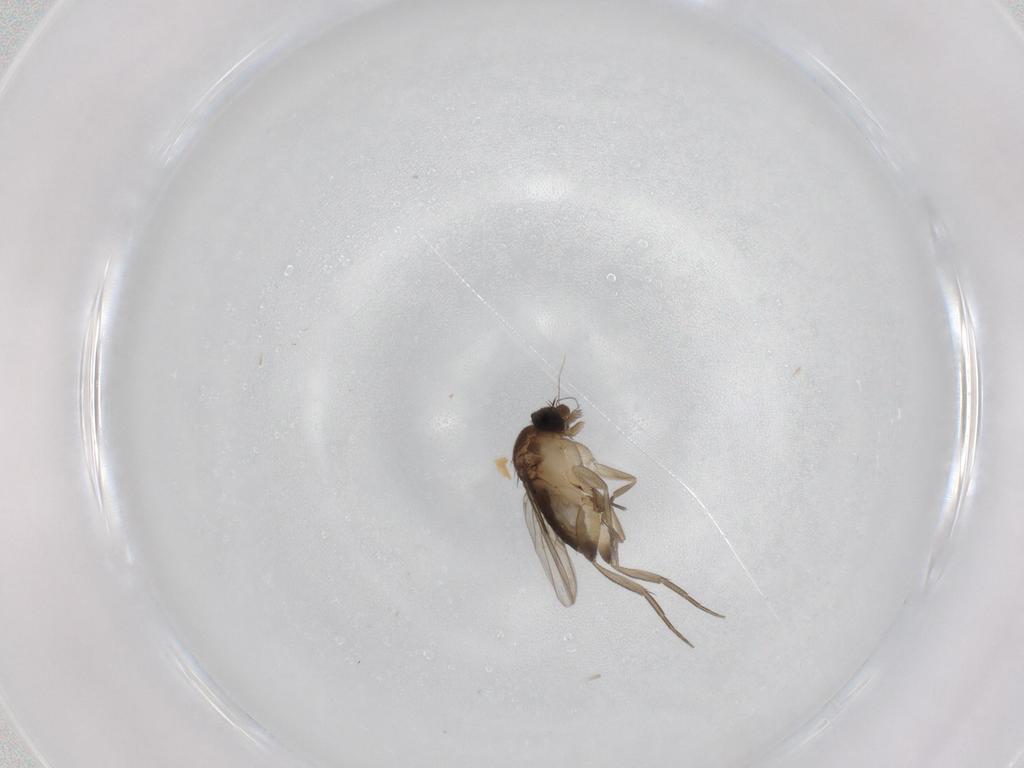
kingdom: Animalia
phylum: Arthropoda
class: Insecta
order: Diptera
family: Phoridae
